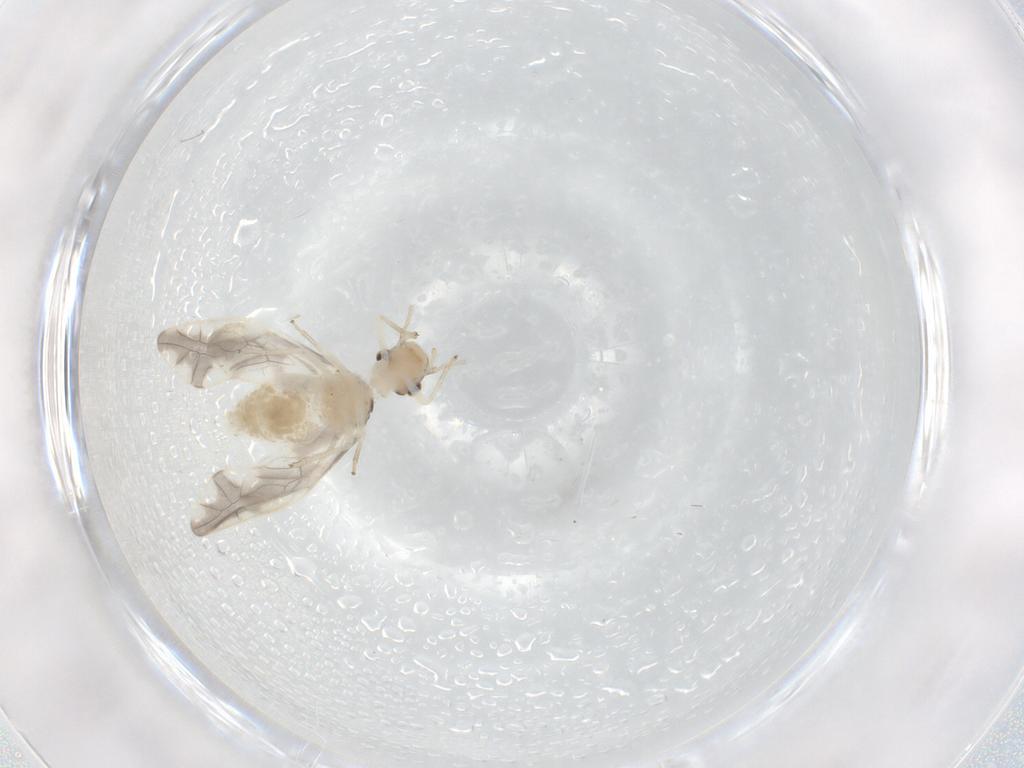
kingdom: Animalia
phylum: Arthropoda
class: Insecta
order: Psocodea
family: Caeciliusidae
